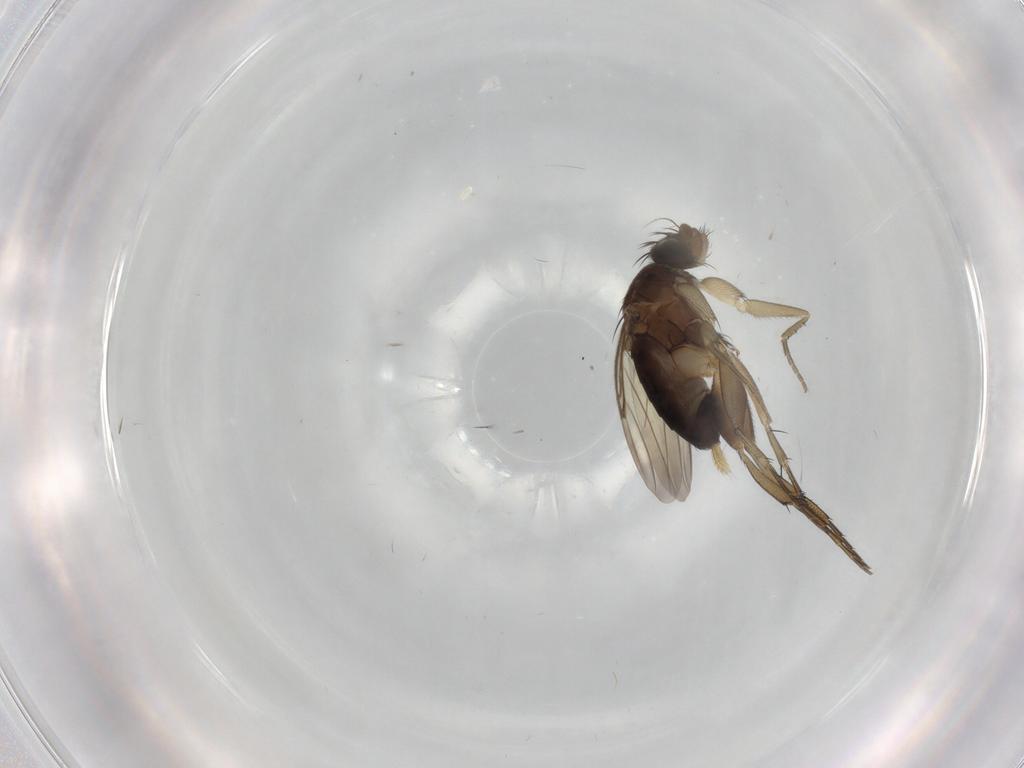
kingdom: Animalia
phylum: Arthropoda
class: Insecta
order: Diptera
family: Phoridae
